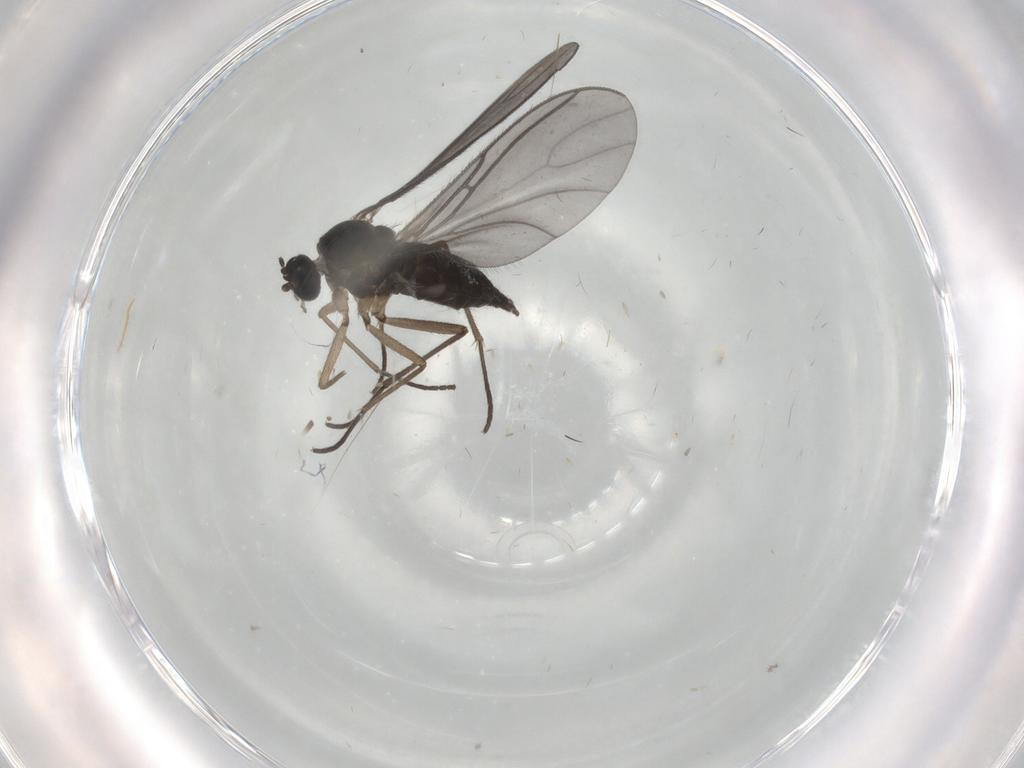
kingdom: Animalia
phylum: Arthropoda
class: Insecta
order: Diptera
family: Sciaridae
